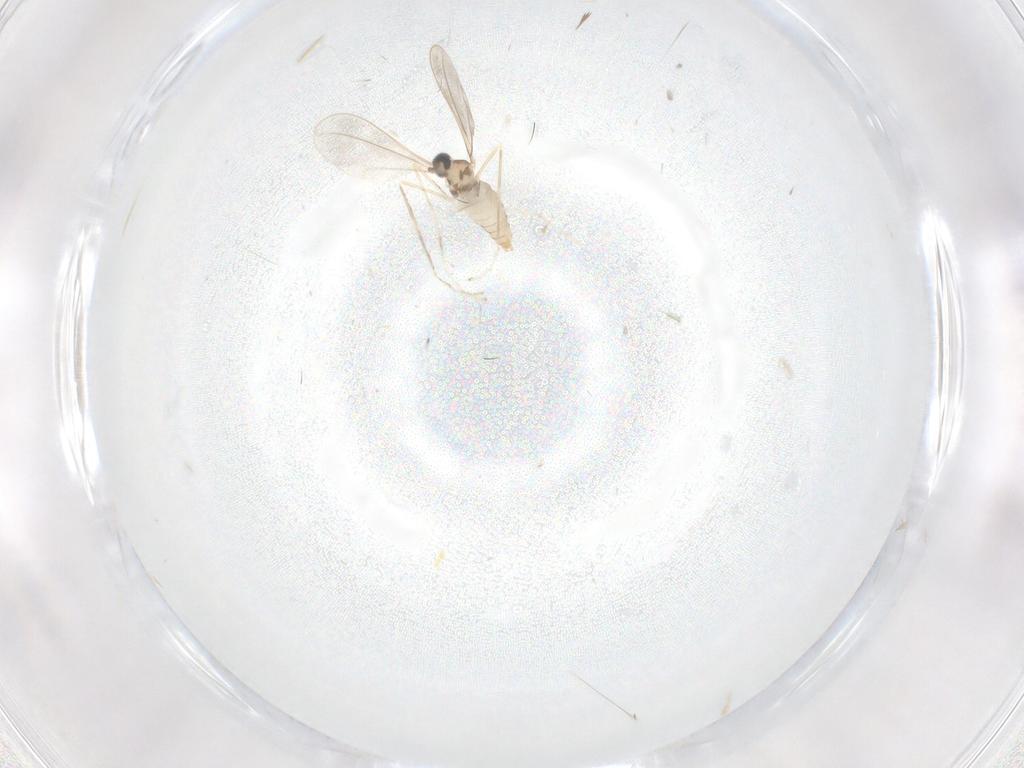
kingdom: Animalia
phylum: Arthropoda
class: Insecta
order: Diptera
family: Cecidomyiidae
